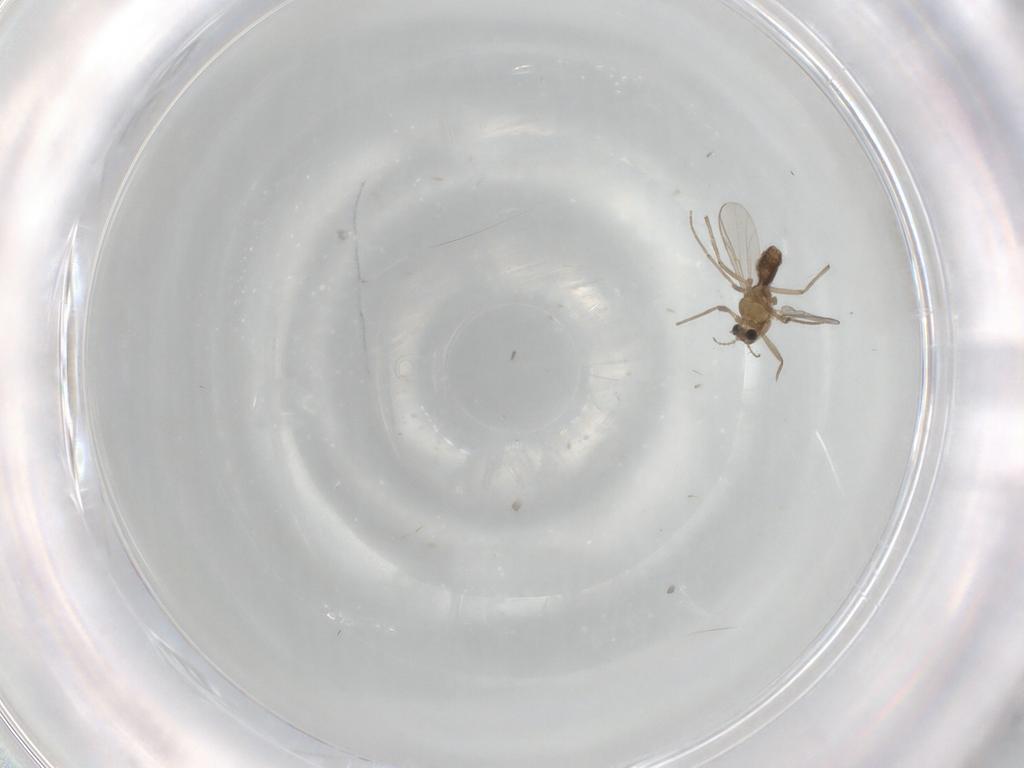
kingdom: Animalia
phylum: Arthropoda
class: Insecta
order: Diptera
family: Chironomidae
